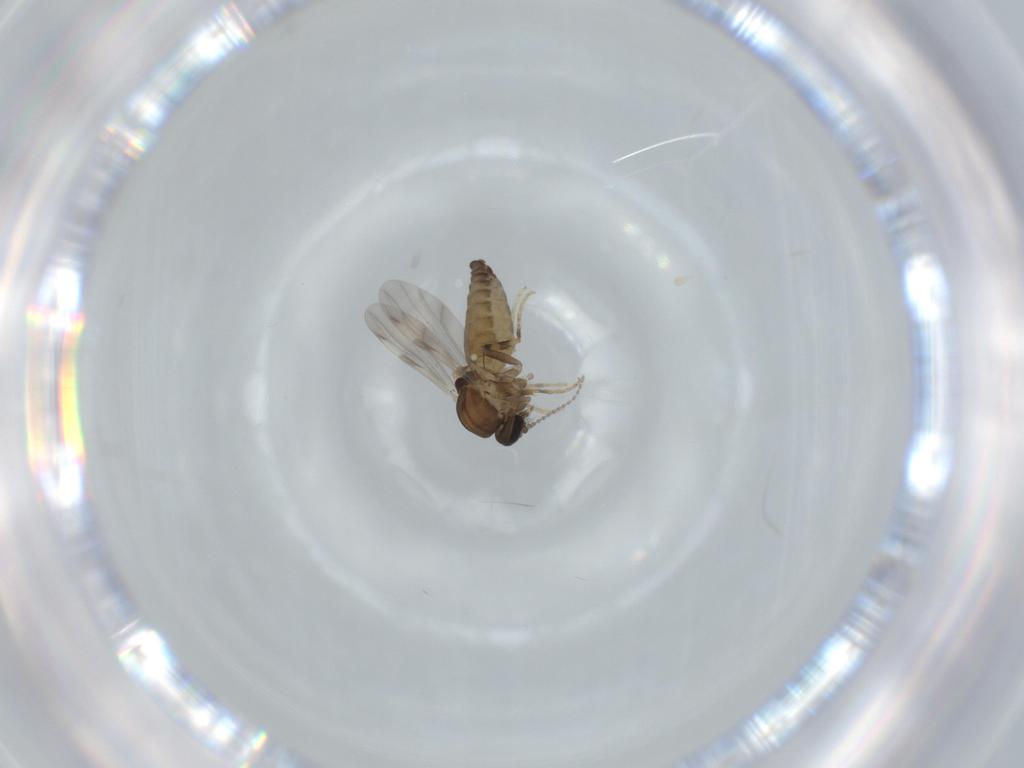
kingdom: Animalia
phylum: Arthropoda
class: Insecta
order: Diptera
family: Ceratopogonidae
